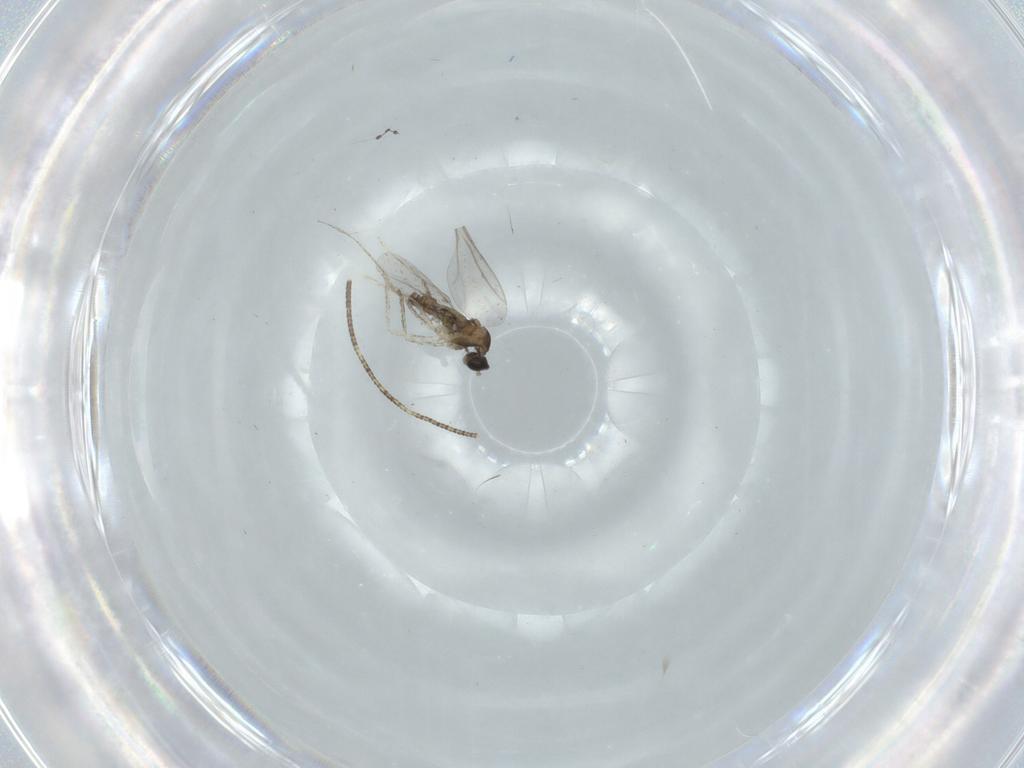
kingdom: Animalia
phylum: Arthropoda
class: Insecta
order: Diptera
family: Cecidomyiidae
